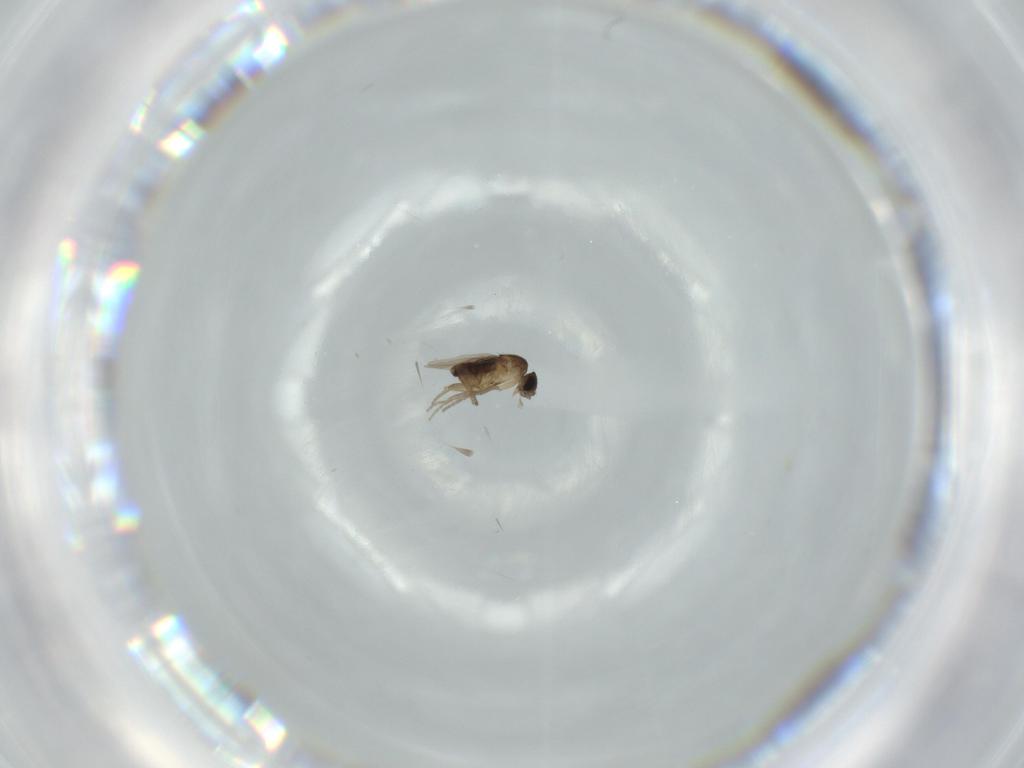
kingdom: Animalia
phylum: Arthropoda
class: Insecta
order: Diptera
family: Phoridae
